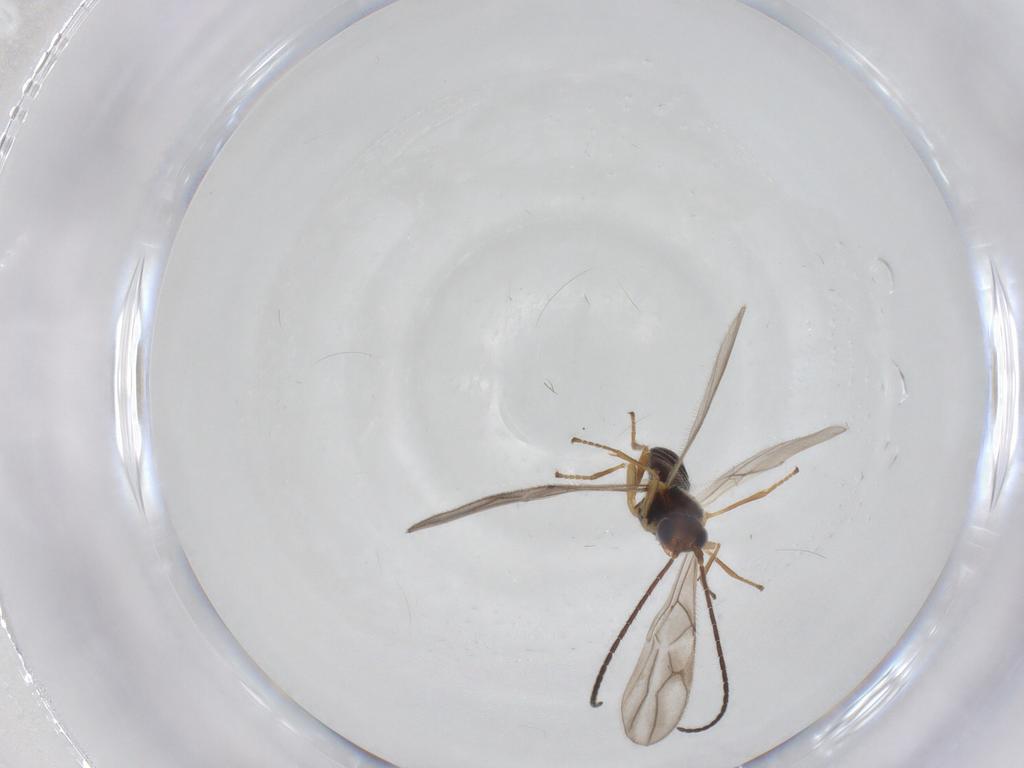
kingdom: Animalia
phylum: Arthropoda
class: Insecta
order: Hymenoptera
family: Braconidae
